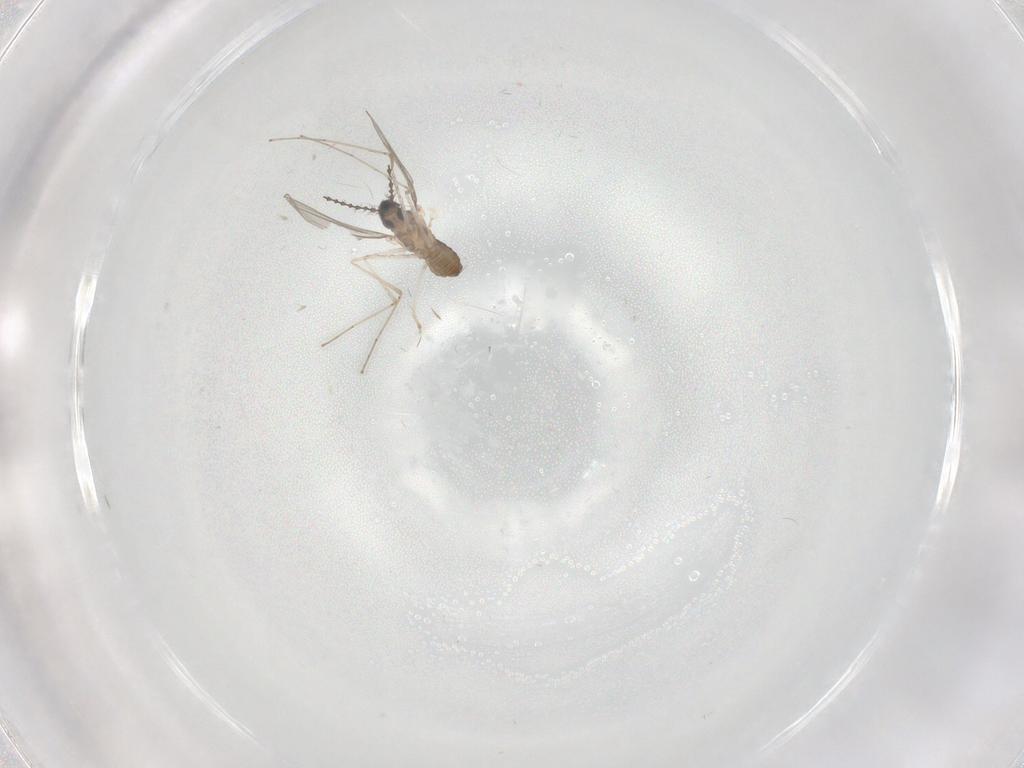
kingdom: Animalia
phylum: Arthropoda
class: Insecta
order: Diptera
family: Cecidomyiidae
